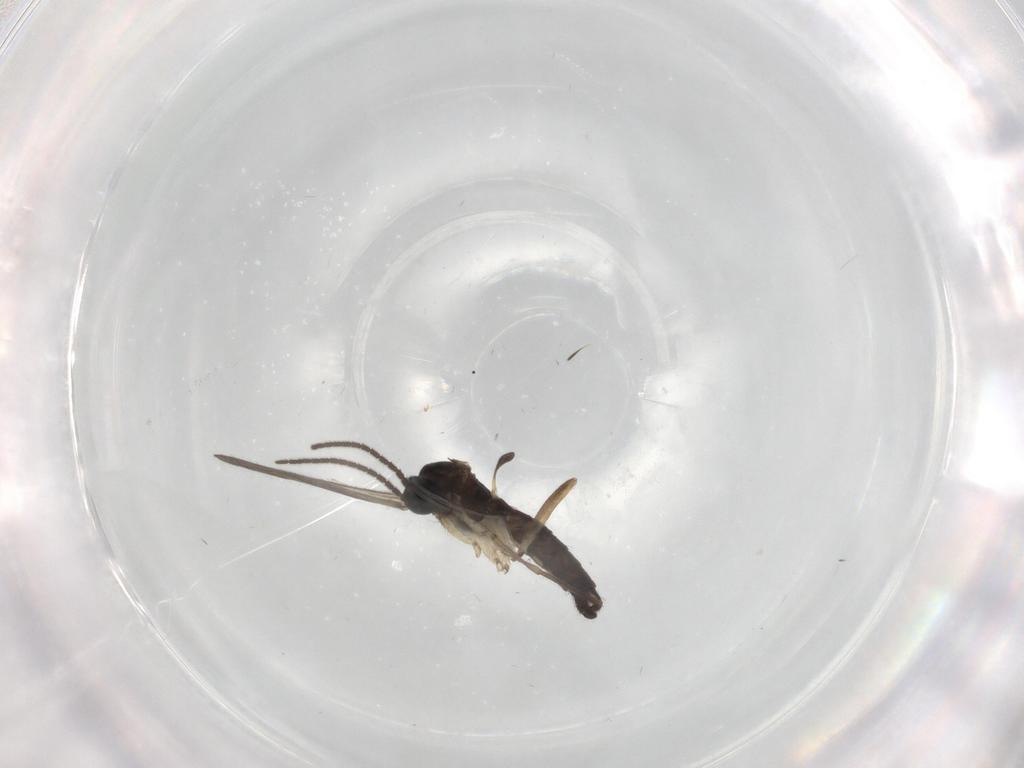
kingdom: Animalia
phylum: Arthropoda
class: Insecta
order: Diptera
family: Sciaridae
